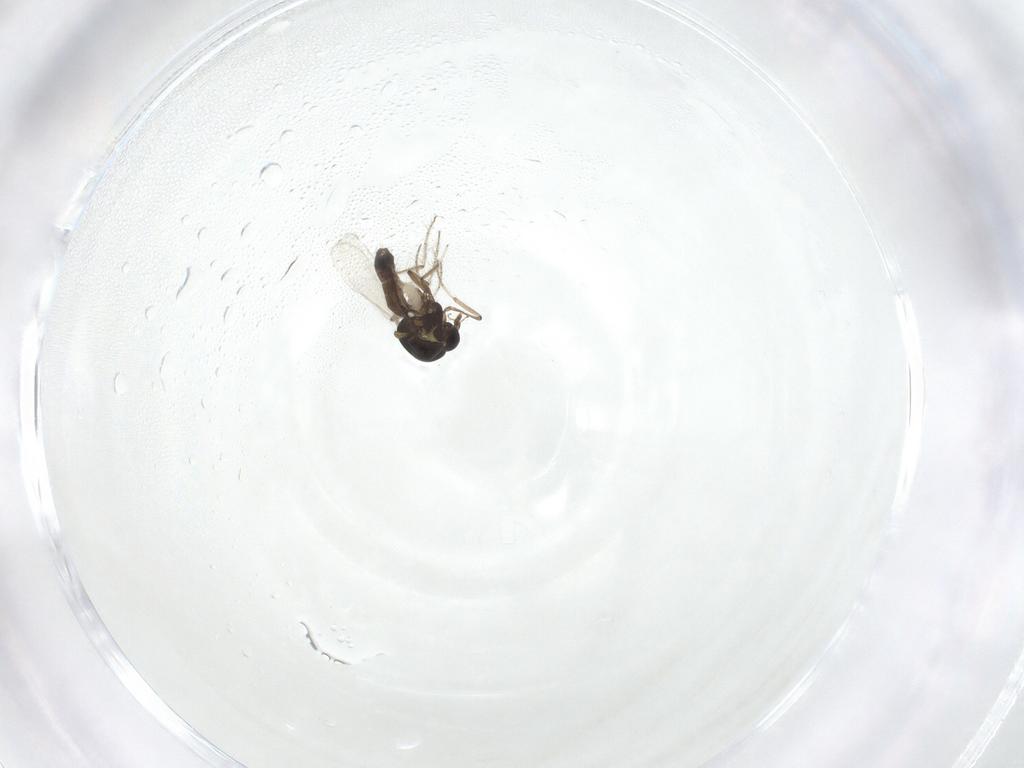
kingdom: Animalia
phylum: Arthropoda
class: Insecta
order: Diptera
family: Ceratopogonidae
